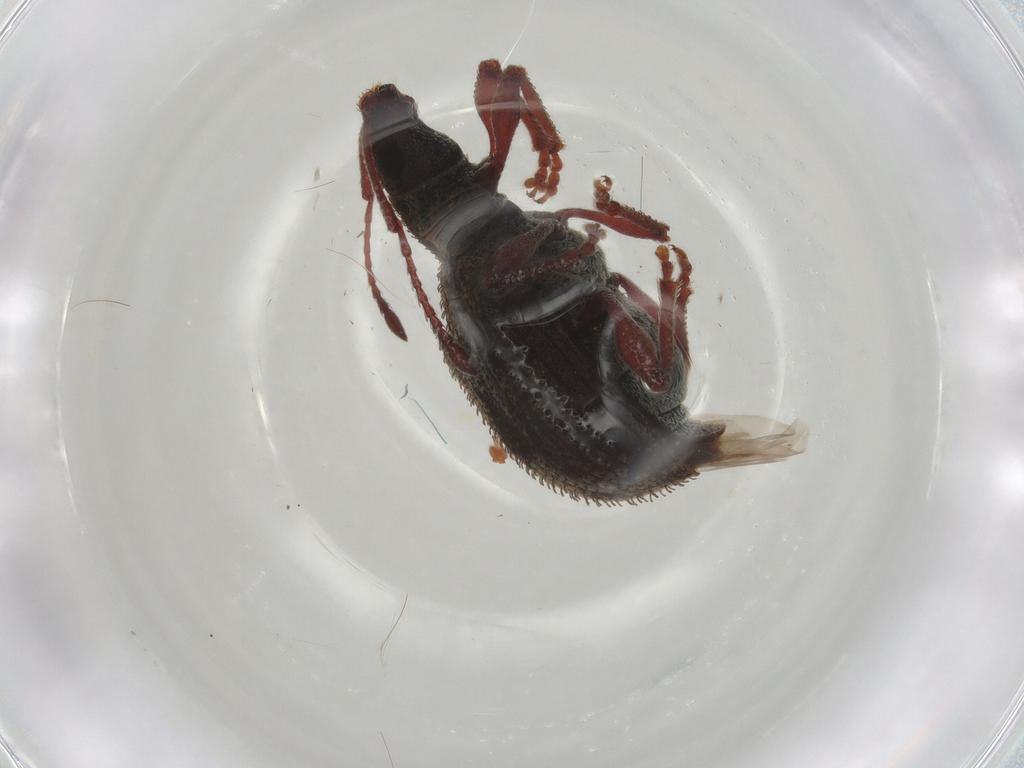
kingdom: Animalia
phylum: Arthropoda
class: Insecta
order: Coleoptera
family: Curculionidae
